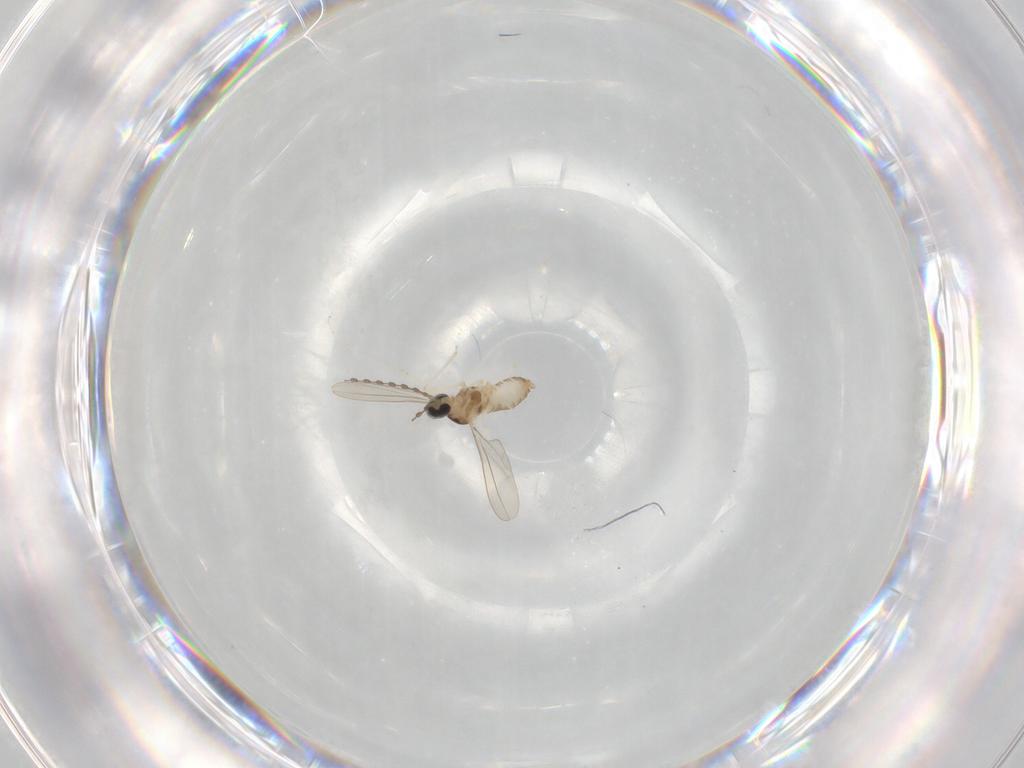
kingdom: Animalia
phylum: Arthropoda
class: Insecta
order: Diptera
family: Cecidomyiidae
